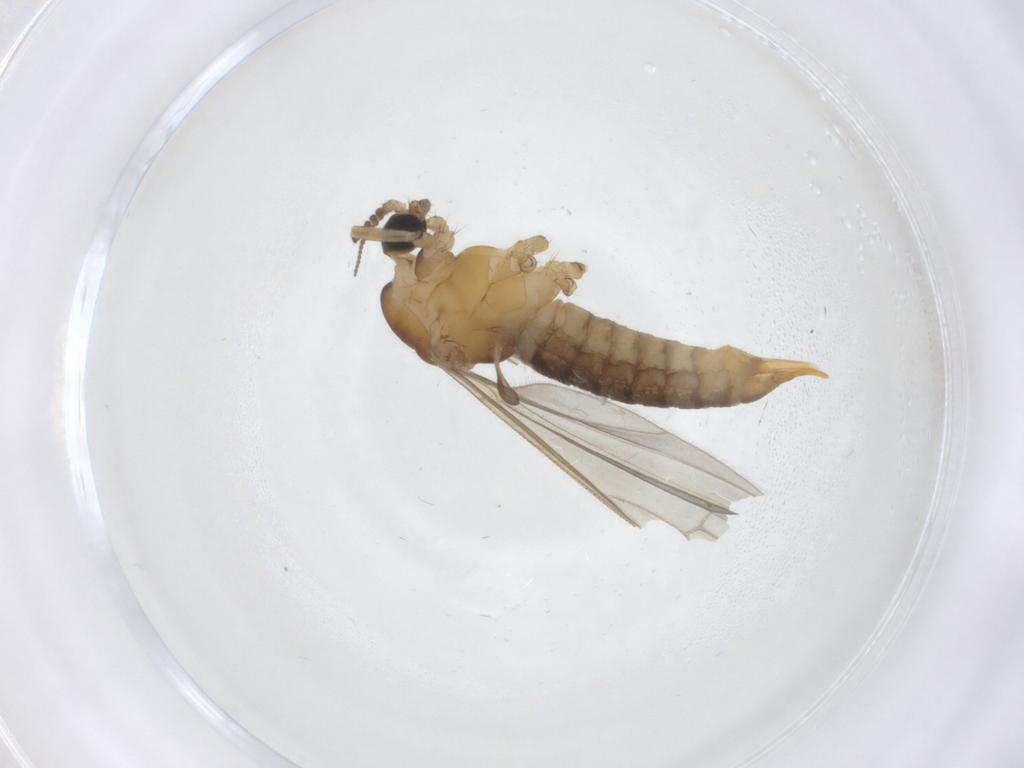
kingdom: Animalia
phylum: Arthropoda
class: Insecta
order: Diptera
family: Limoniidae
